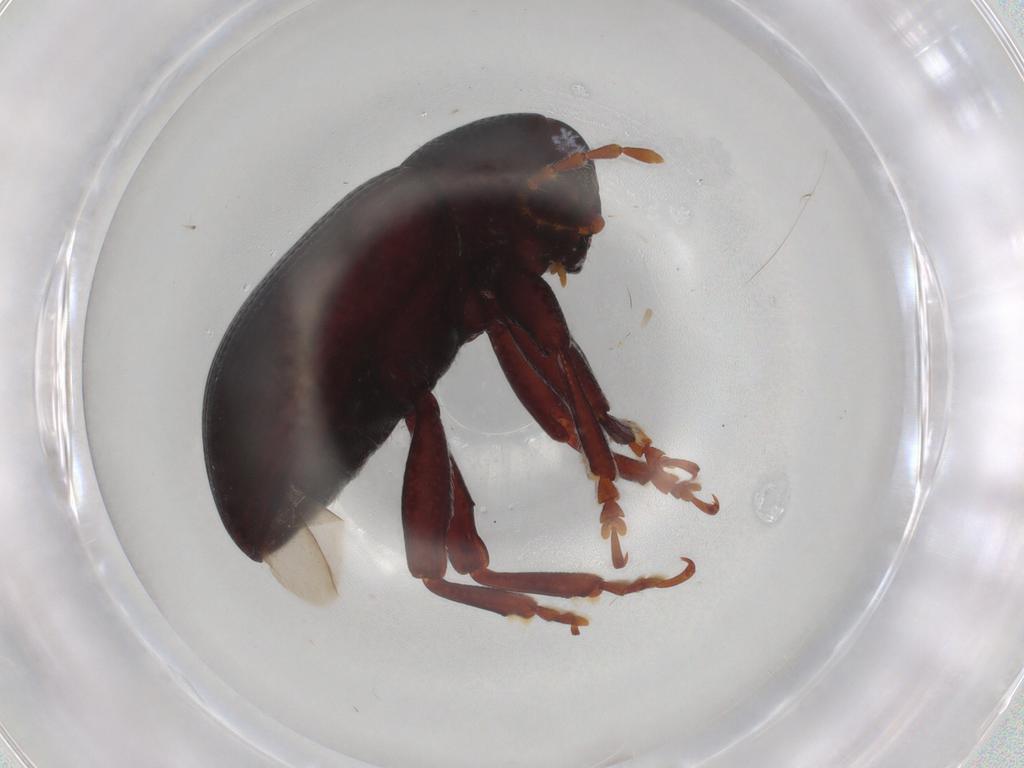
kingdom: Animalia
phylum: Arthropoda
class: Insecta
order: Coleoptera
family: Chrysomelidae
